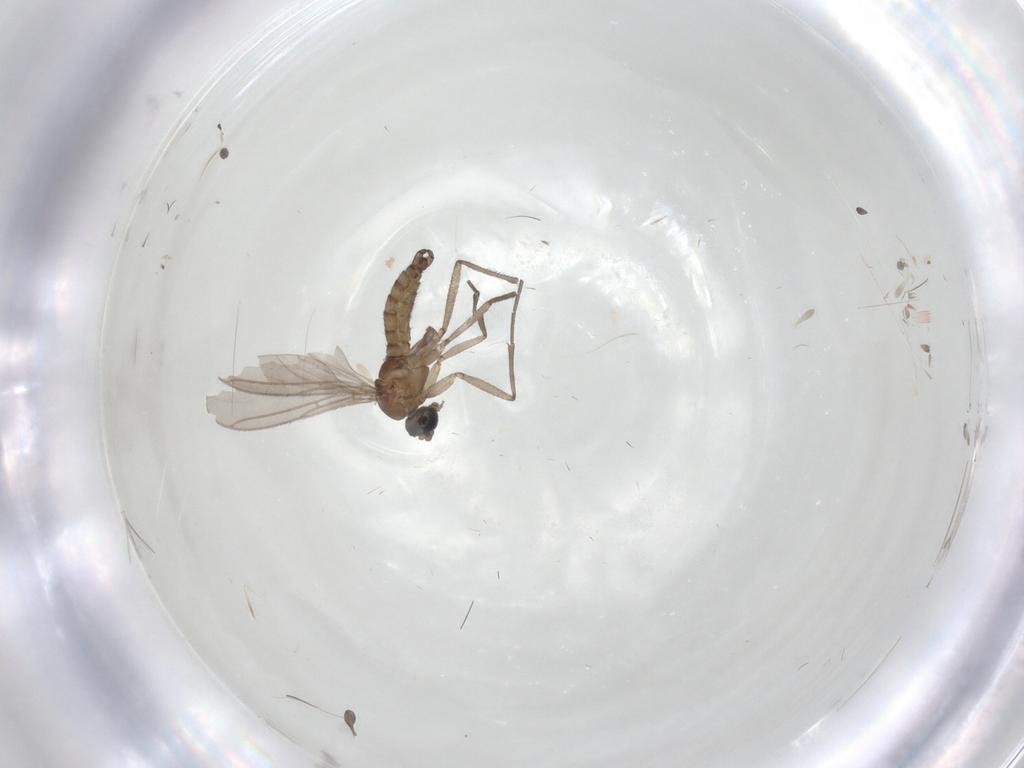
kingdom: Animalia
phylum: Arthropoda
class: Insecta
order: Diptera
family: Sciaridae
